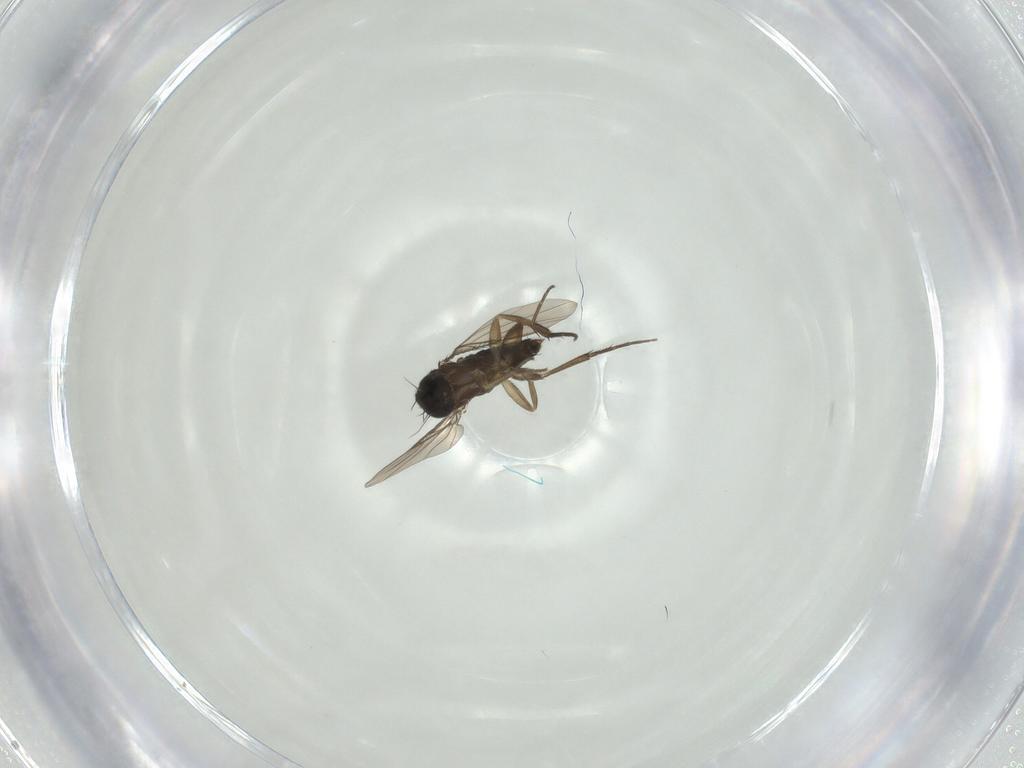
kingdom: Animalia
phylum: Arthropoda
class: Insecta
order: Diptera
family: Phoridae
